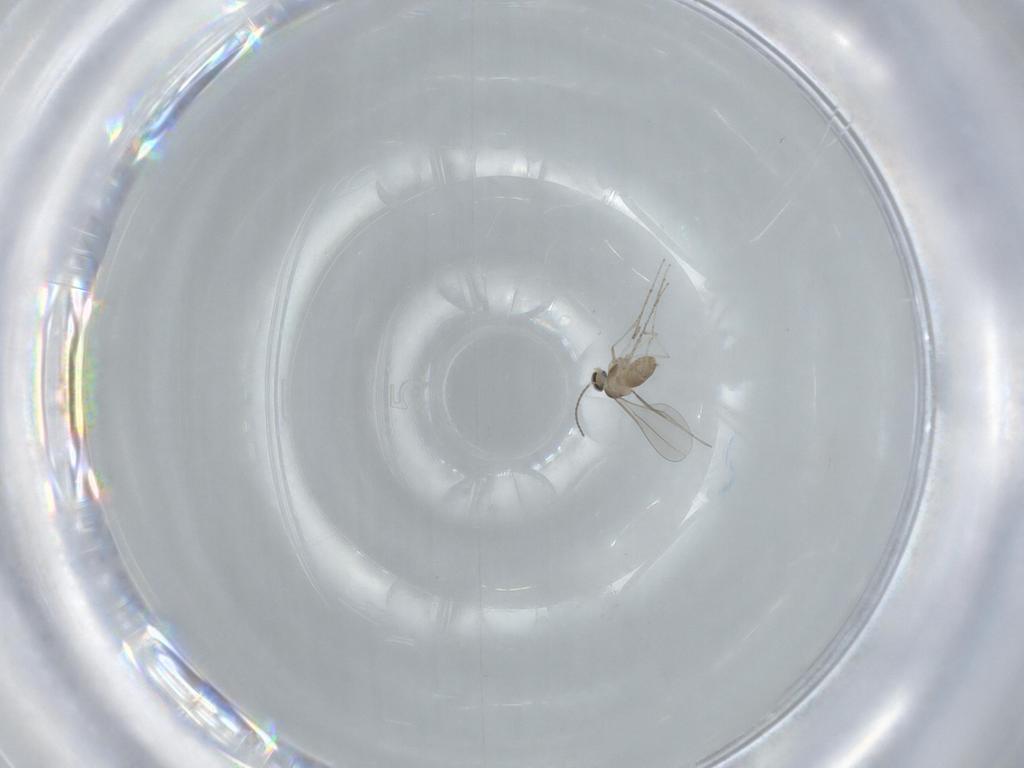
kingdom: Animalia
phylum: Arthropoda
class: Insecta
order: Diptera
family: Cecidomyiidae
